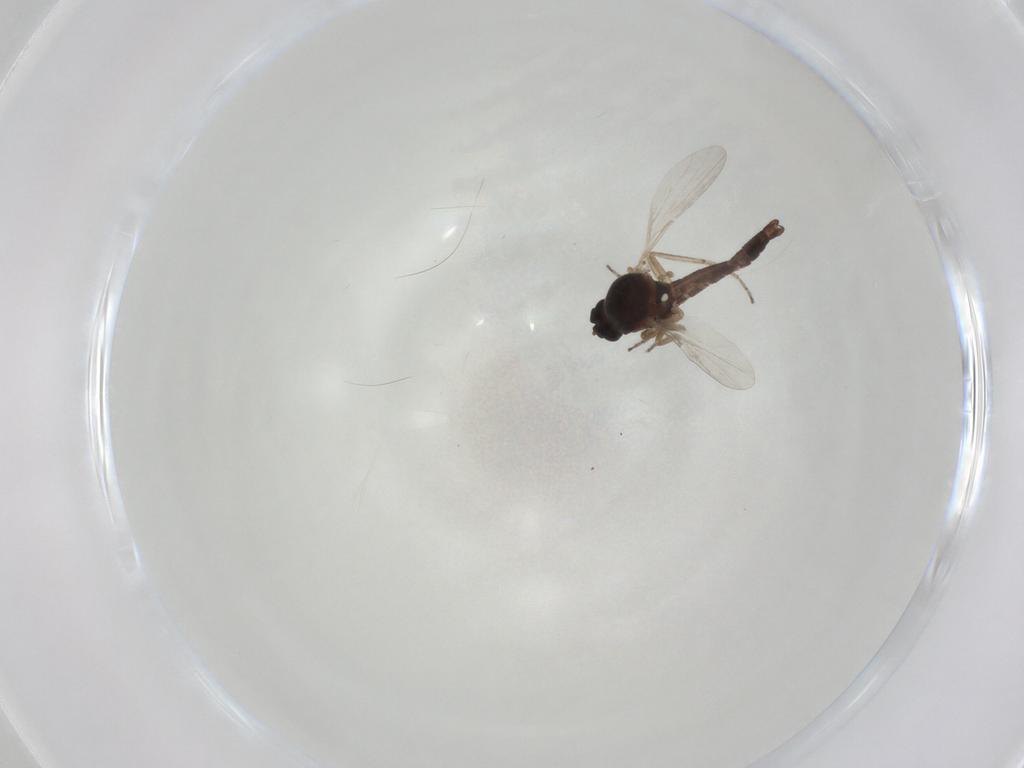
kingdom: Animalia
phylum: Arthropoda
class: Insecta
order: Diptera
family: Ceratopogonidae
